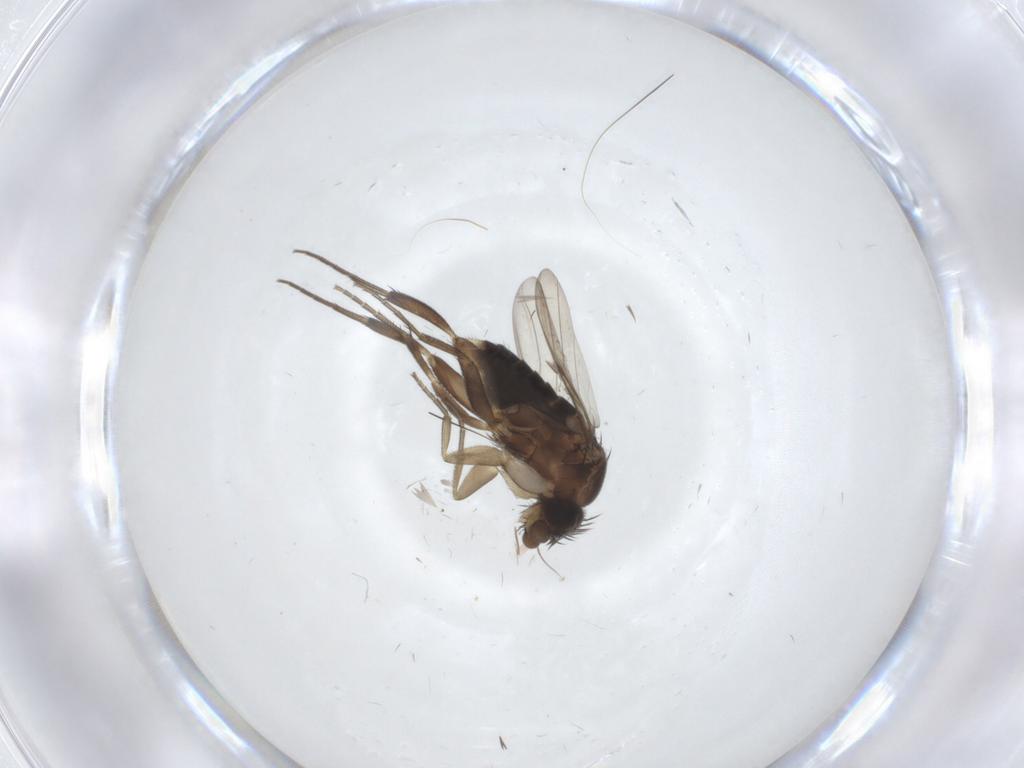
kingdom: Animalia
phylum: Arthropoda
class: Insecta
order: Diptera
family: Phoridae
